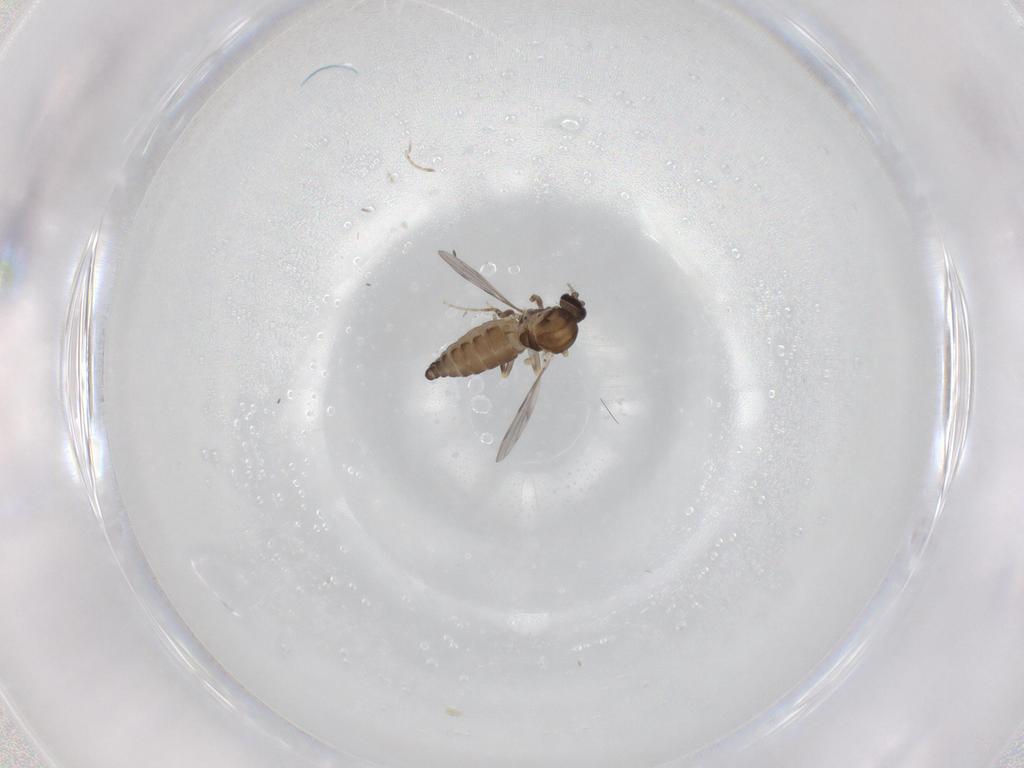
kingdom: Animalia
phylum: Arthropoda
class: Insecta
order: Diptera
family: Ceratopogonidae
